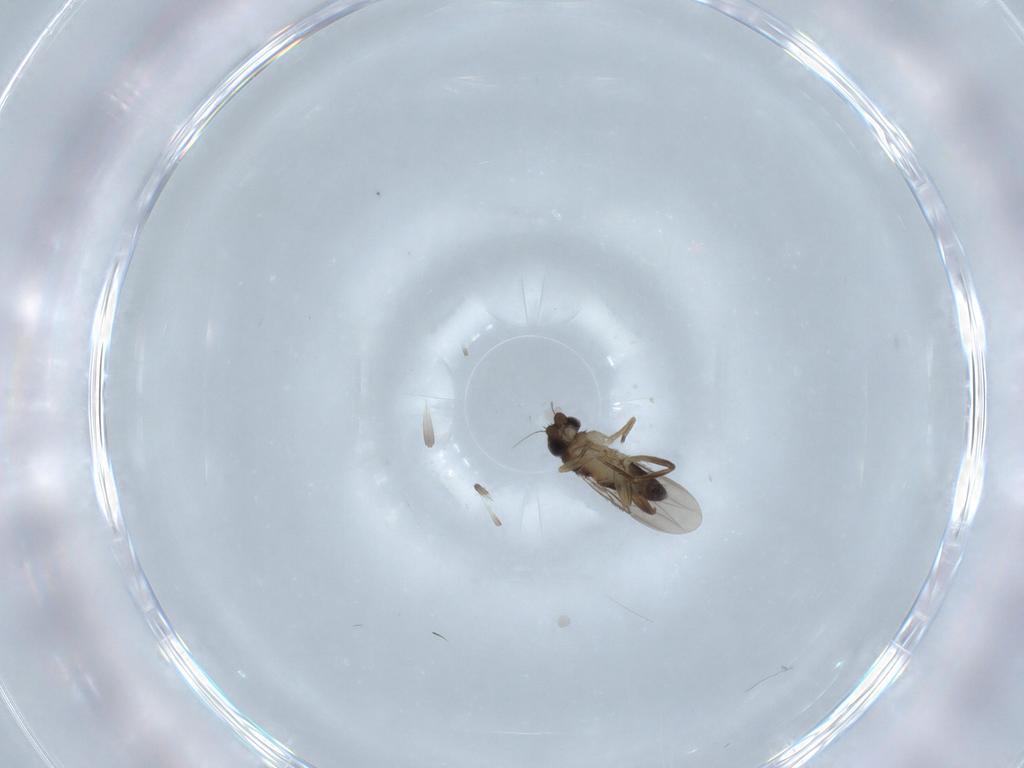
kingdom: Animalia
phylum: Arthropoda
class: Insecta
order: Diptera
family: Phoridae
